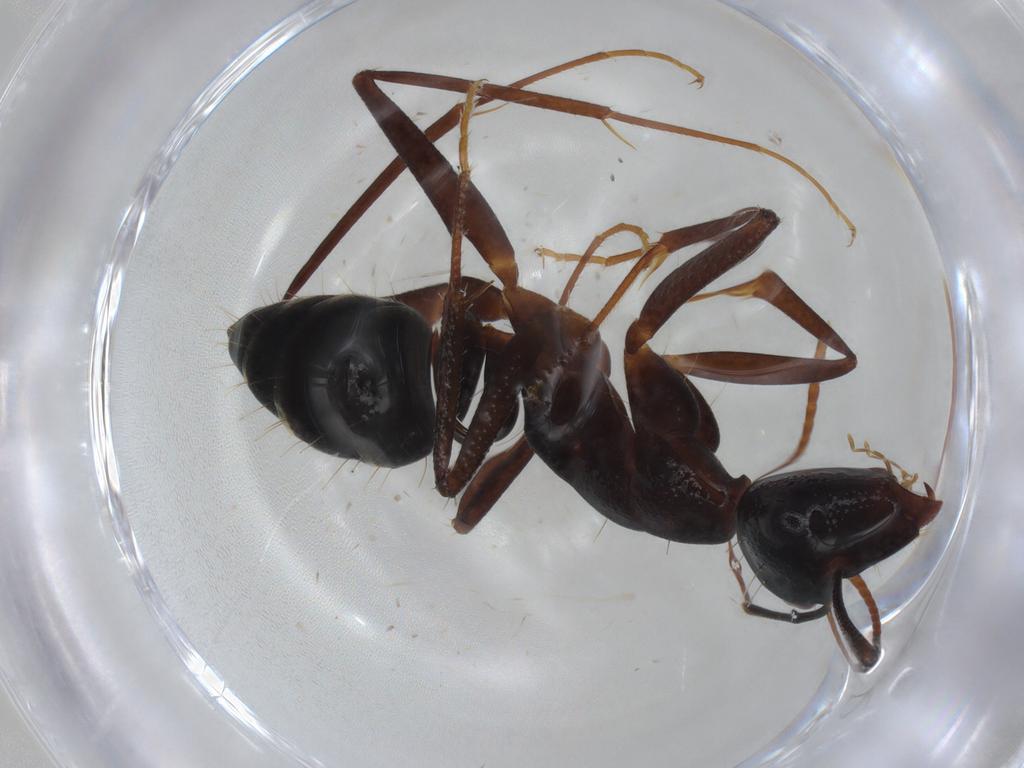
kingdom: Animalia
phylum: Arthropoda
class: Insecta
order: Hymenoptera
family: Formicidae
